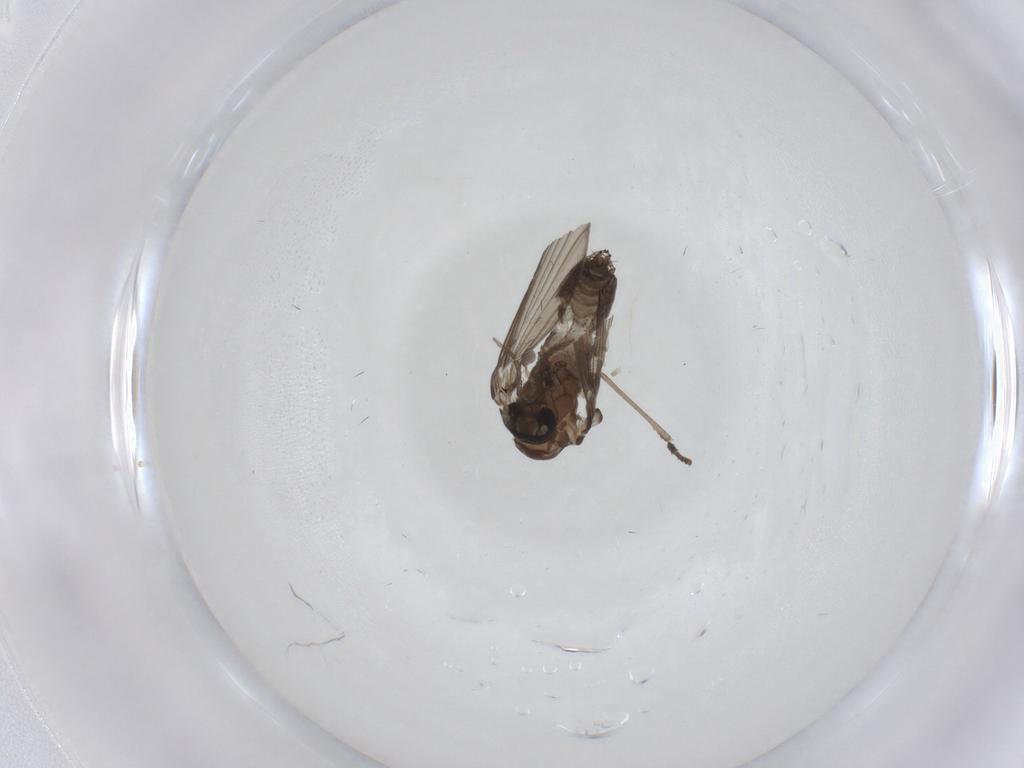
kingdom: Animalia
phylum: Arthropoda
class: Insecta
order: Diptera
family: Psychodidae
